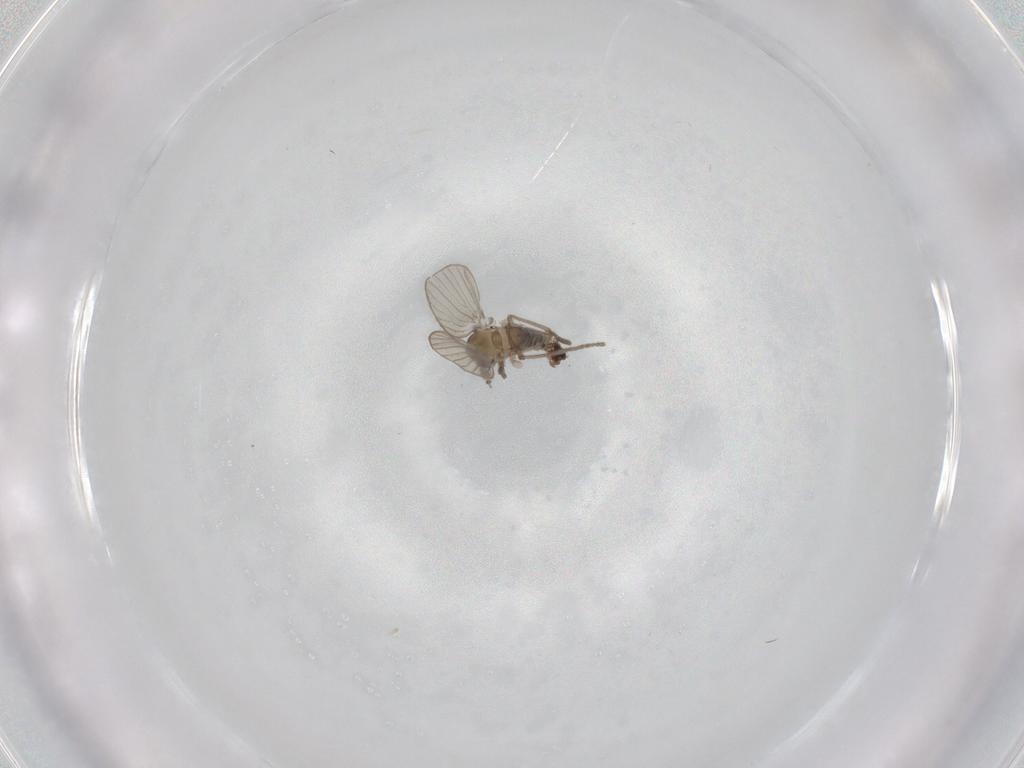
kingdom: Animalia
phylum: Arthropoda
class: Insecta
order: Diptera
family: Psychodidae
